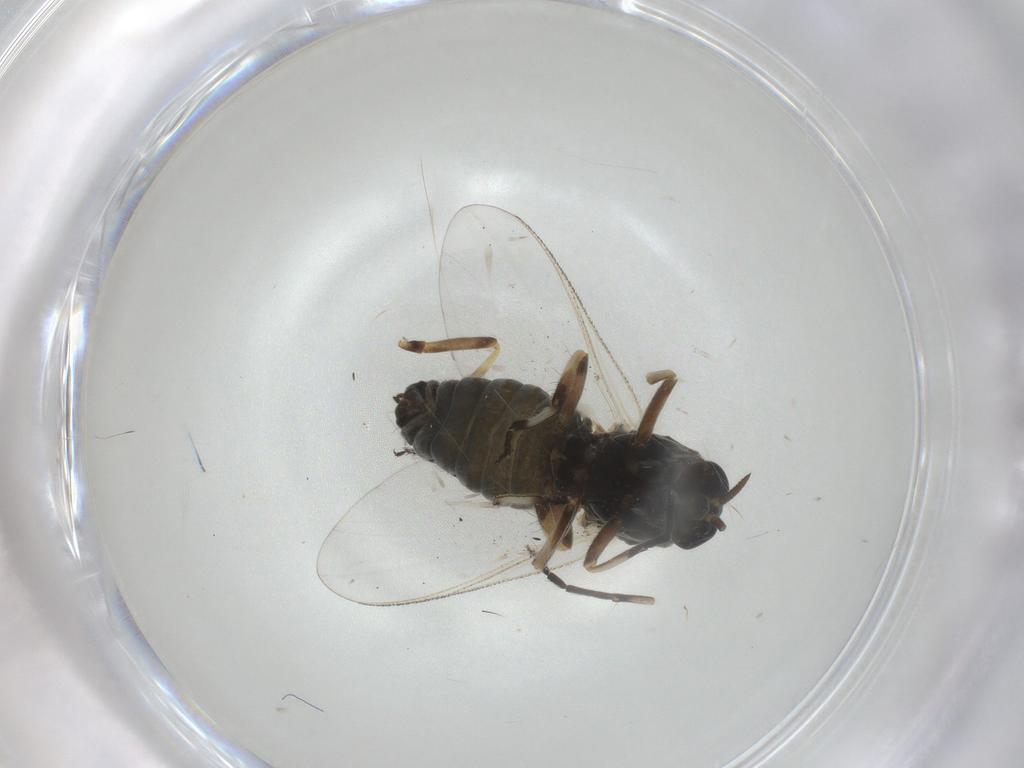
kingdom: Animalia
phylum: Arthropoda
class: Insecta
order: Diptera
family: Simuliidae
